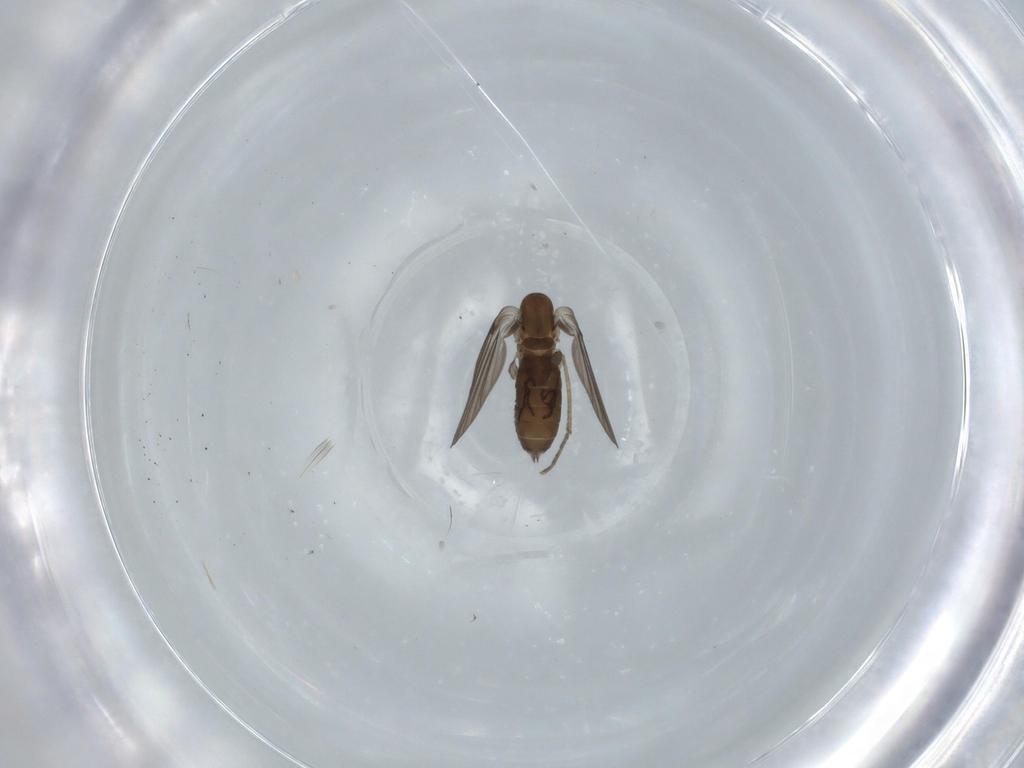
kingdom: Animalia
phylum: Arthropoda
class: Insecta
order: Diptera
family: Psychodidae
